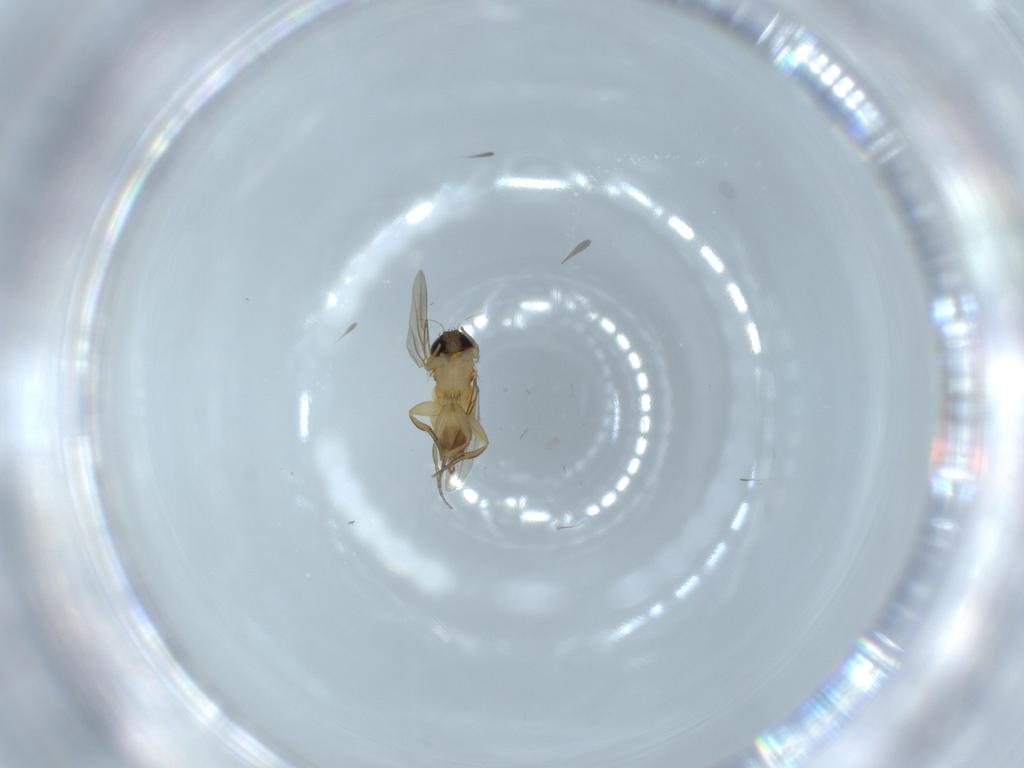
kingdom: Animalia
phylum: Arthropoda
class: Insecta
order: Diptera
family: Phoridae
